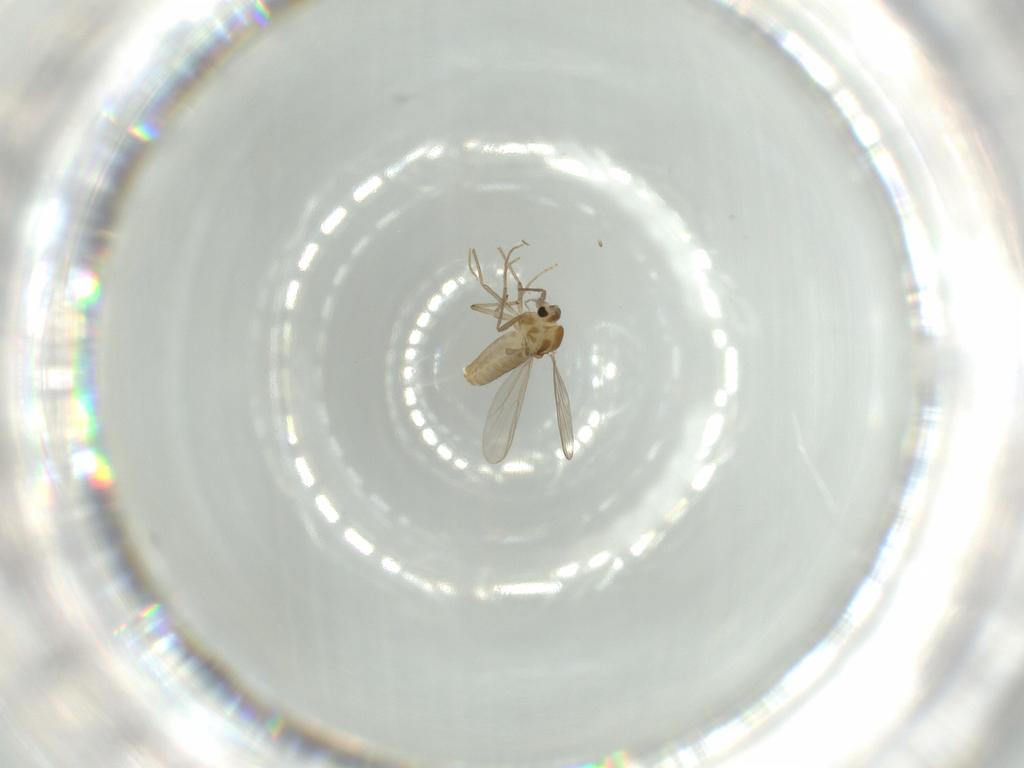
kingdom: Animalia
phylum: Arthropoda
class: Insecta
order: Diptera
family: Chironomidae
